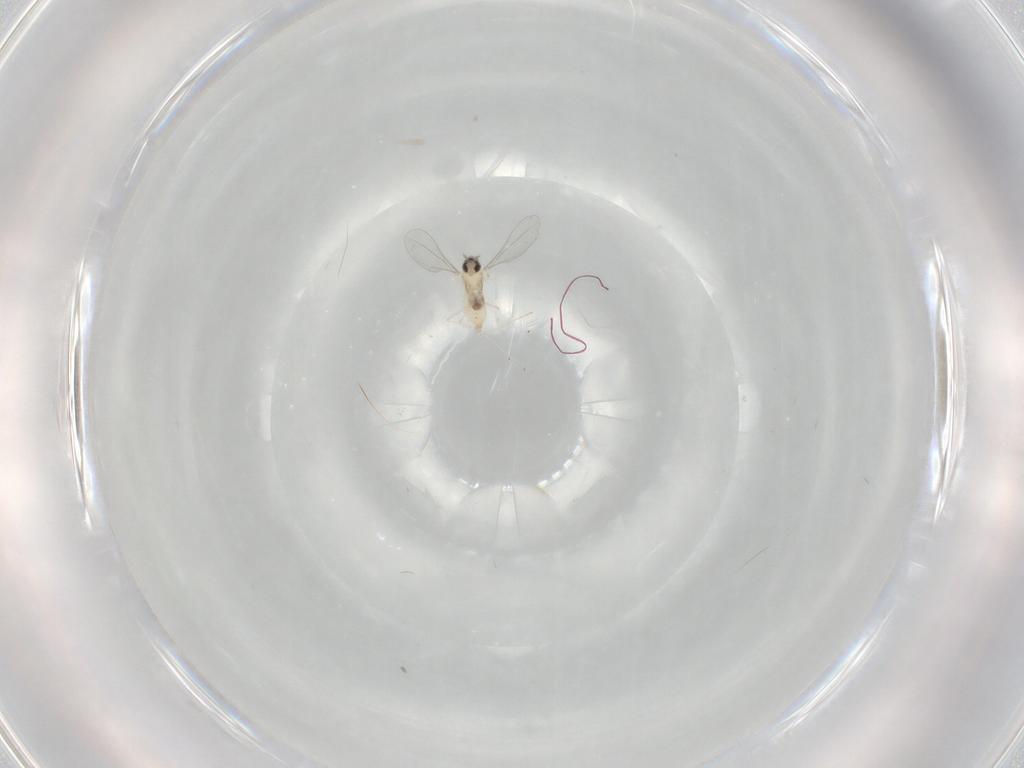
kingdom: Animalia
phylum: Arthropoda
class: Insecta
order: Diptera
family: Cecidomyiidae
